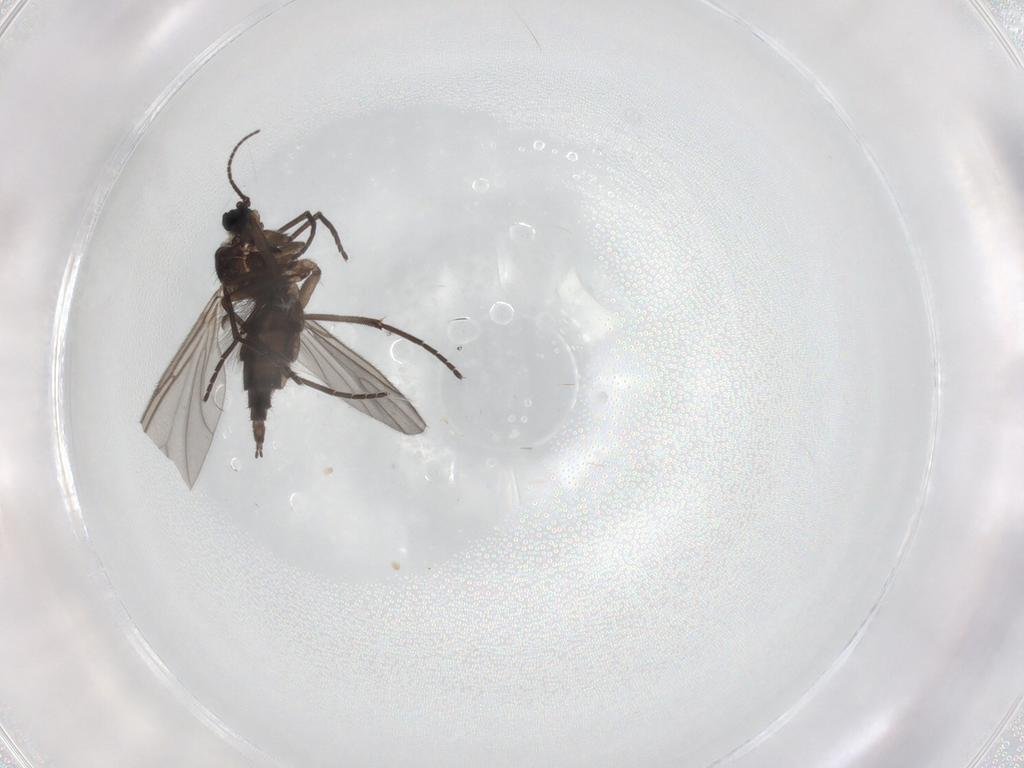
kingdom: Animalia
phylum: Arthropoda
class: Insecta
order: Diptera
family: Sciaridae
